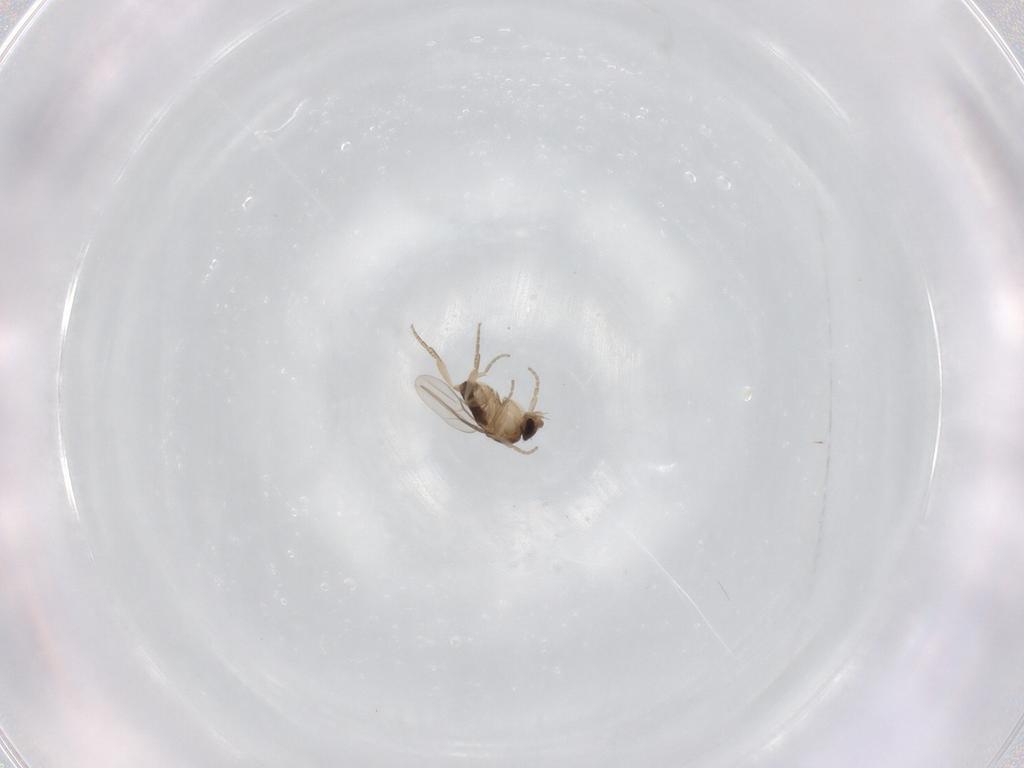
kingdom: Animalia
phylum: Arthropoda
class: Insecta
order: Diptera
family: Phoridae
